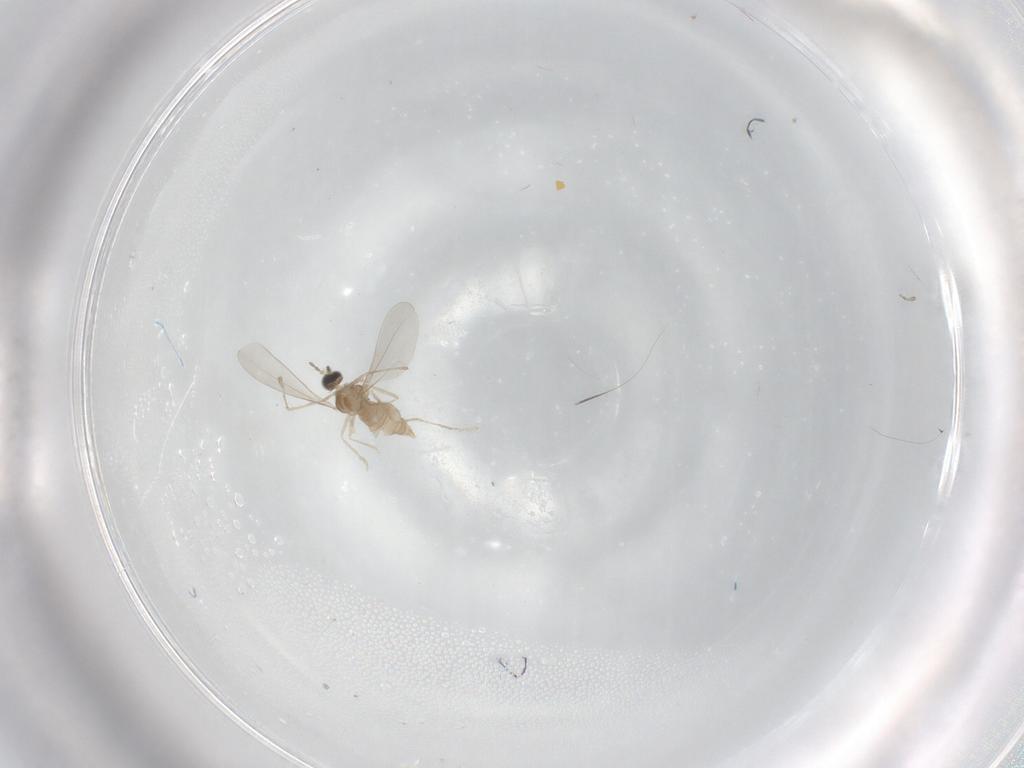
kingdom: Animalia
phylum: Arthropoda
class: Insecta
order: Diptera
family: Cecidomyiidae
